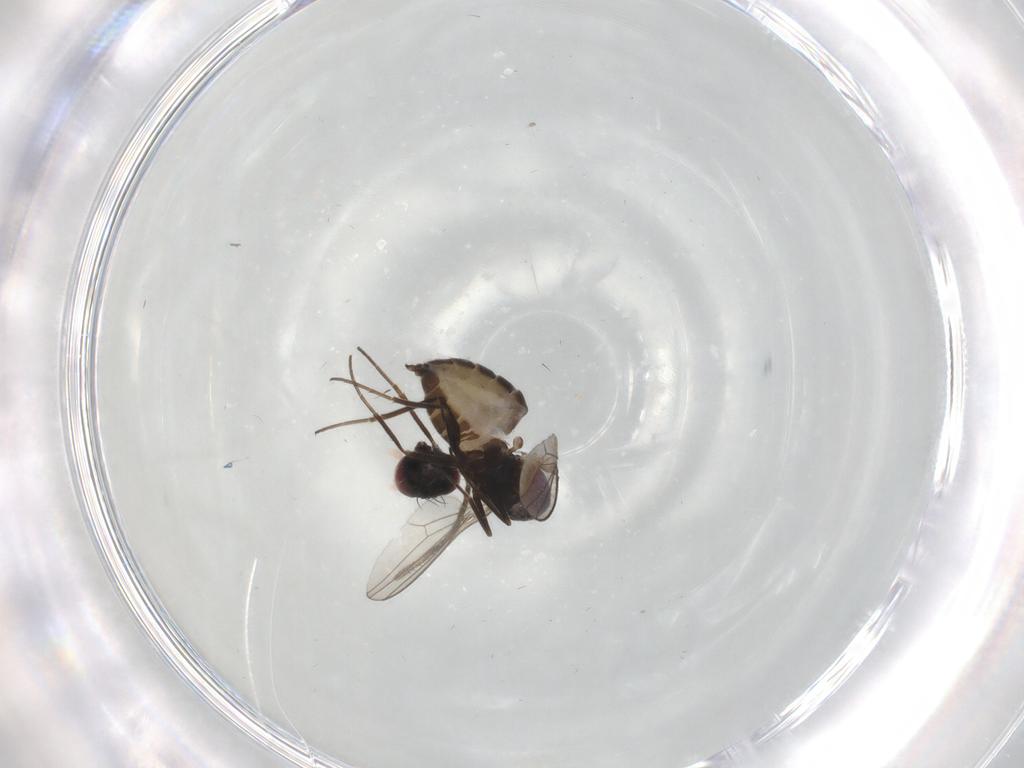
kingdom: Animalia
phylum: Arthropoda
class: Insecta
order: Diptera
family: Dolichopodidae
